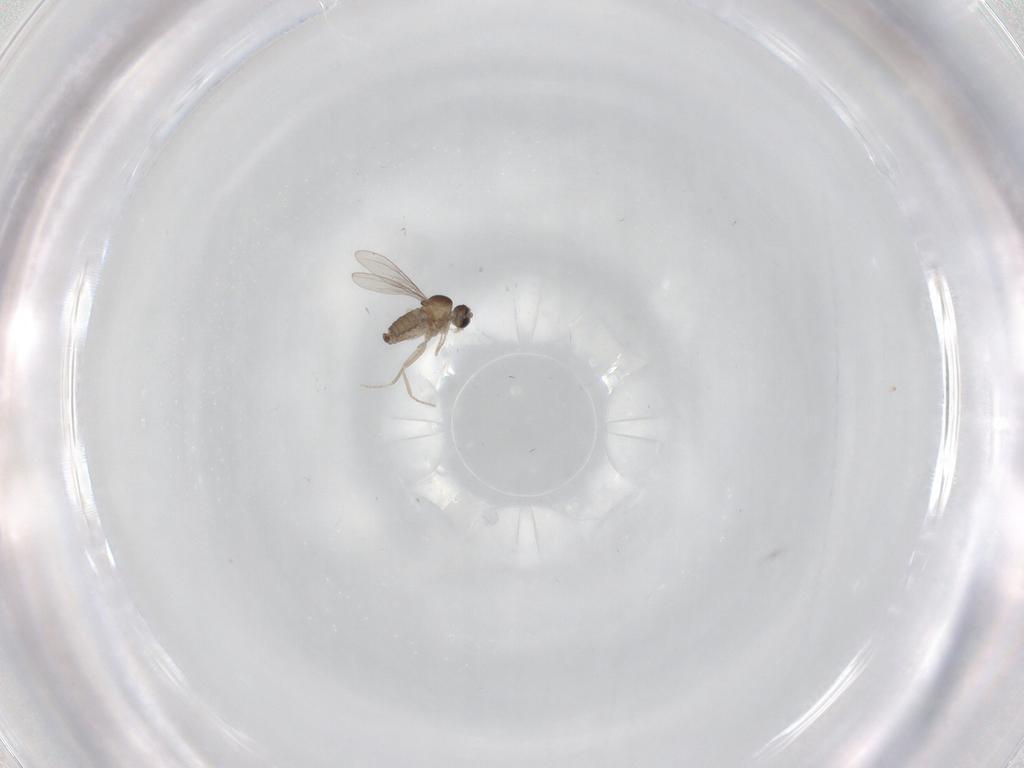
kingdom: Animalia
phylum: Arthropoda
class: Insecta
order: Diptera
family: Cecidomyiidae
